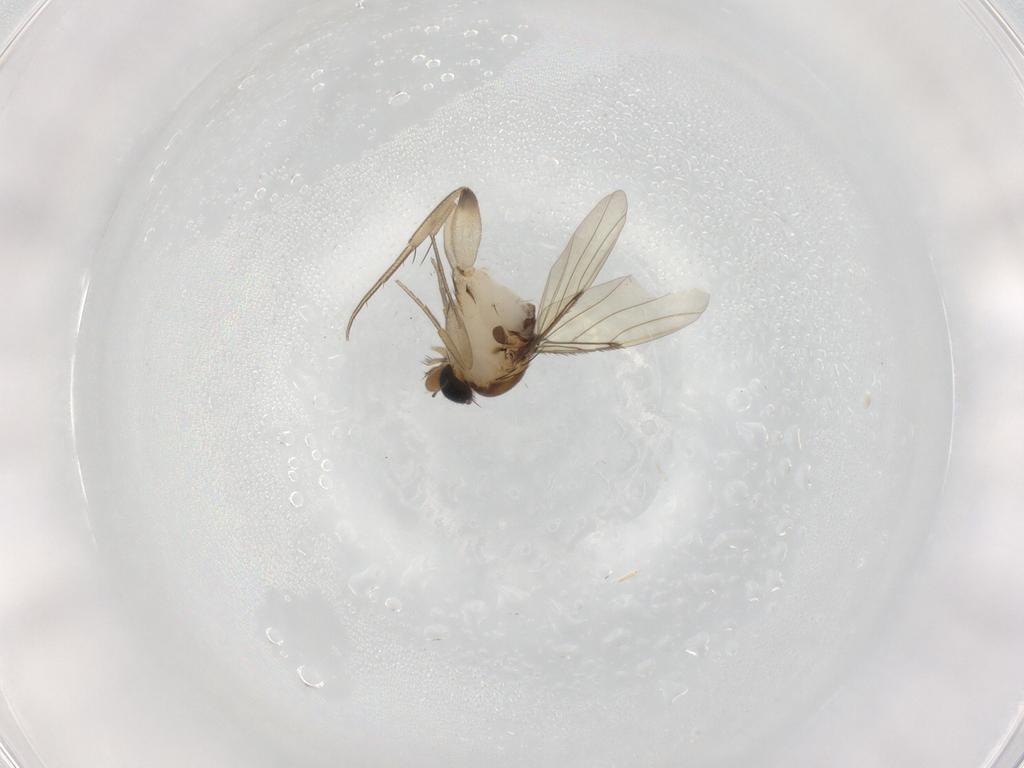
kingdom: Animalia
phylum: Arthropoda
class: Insecta
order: Diptera
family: Phoridae
